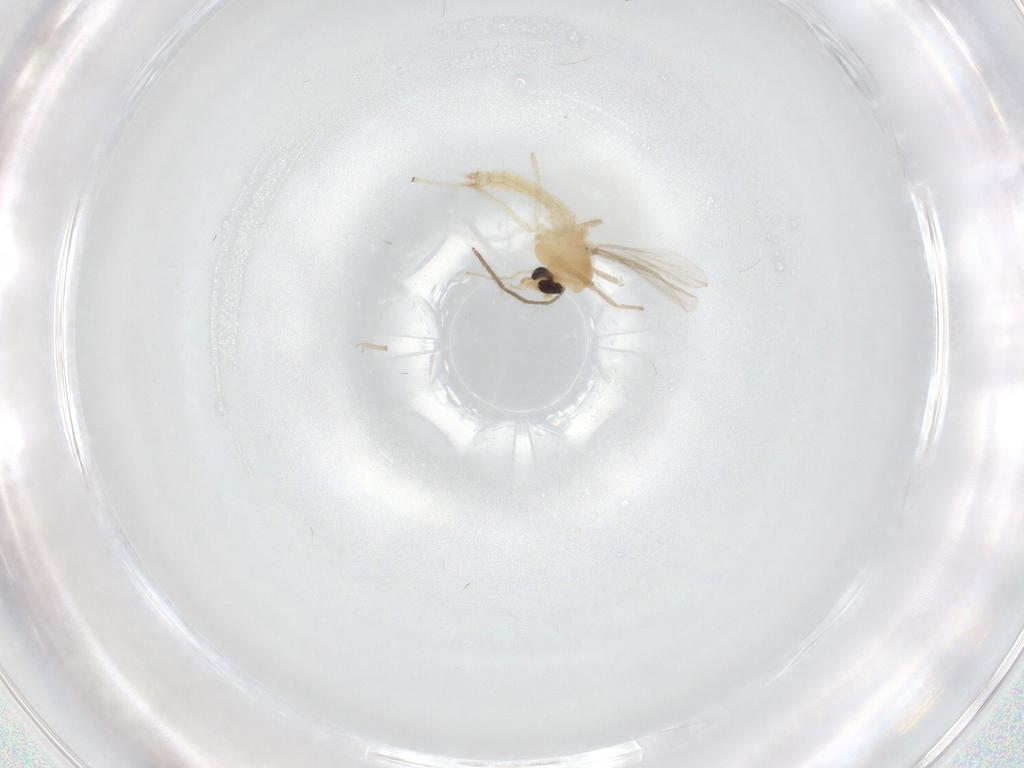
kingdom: Animalia
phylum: Arthropoda
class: Insecta
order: Diptera
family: Chironomidae
